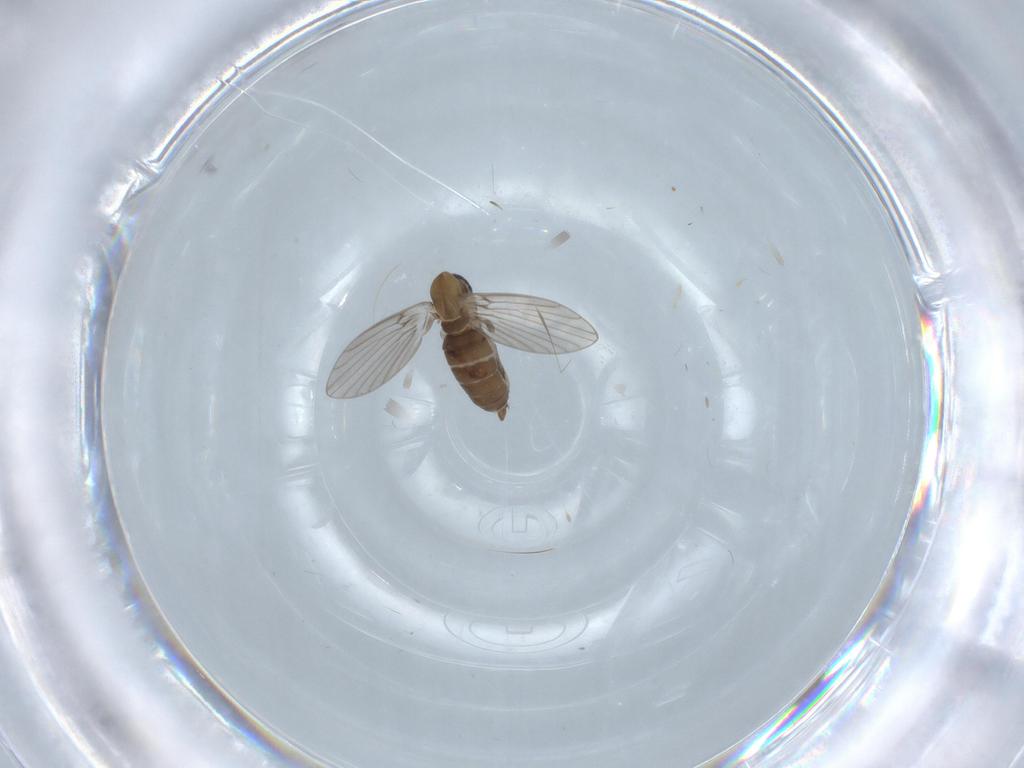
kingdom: Animalia
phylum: Arthropoda
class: Insecta
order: Diptera
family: Psychodidae
